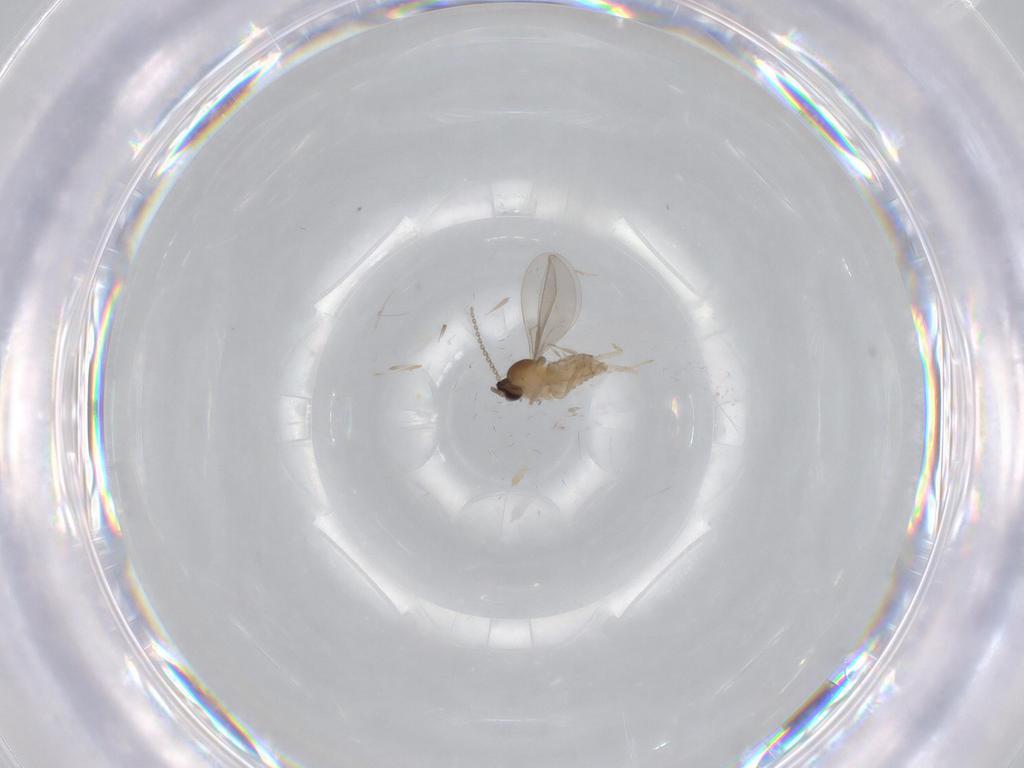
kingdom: Animalia
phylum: Arthropoda
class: Insecta
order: Diptera
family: Cecidomyiidae
